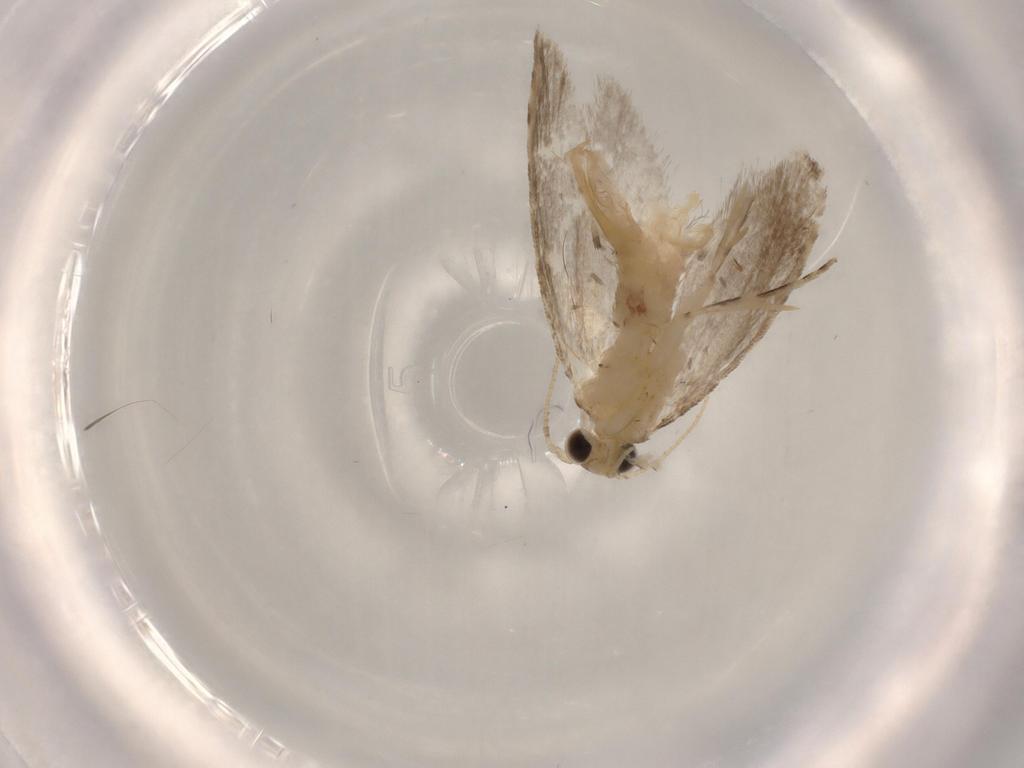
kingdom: Animalia
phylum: Arthropoda
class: Insecta
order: Lepidoptera
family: Tineidae
